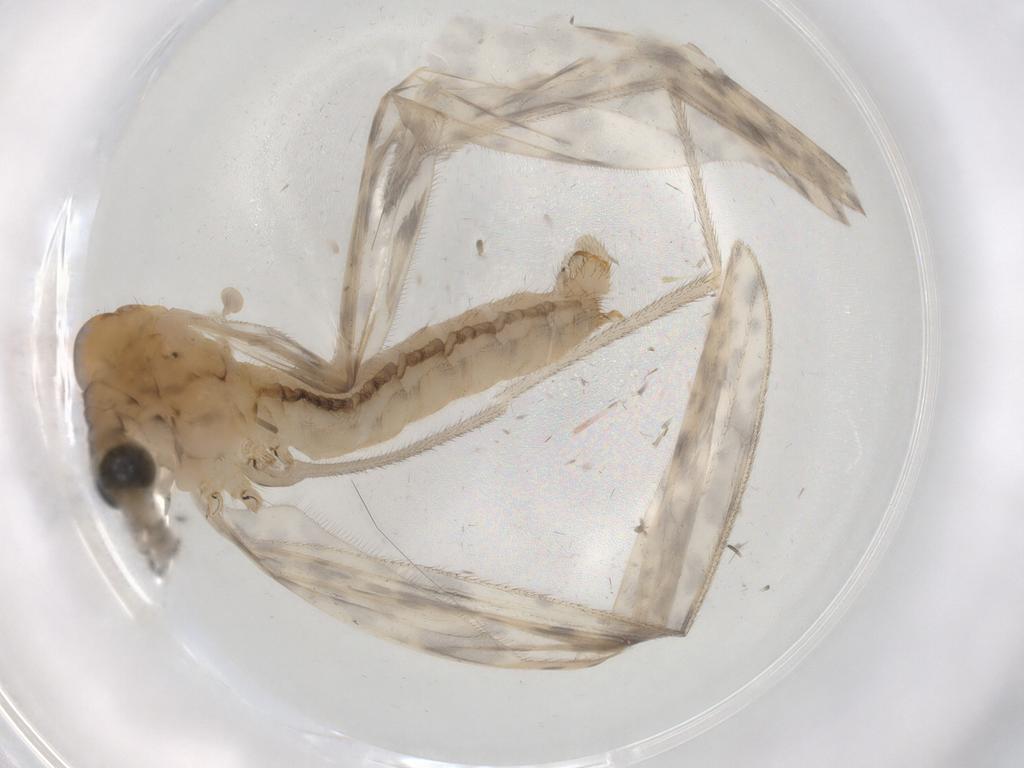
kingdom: Animalia
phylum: Arthropoda
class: Insecta
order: Diptera
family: Limoniidae
